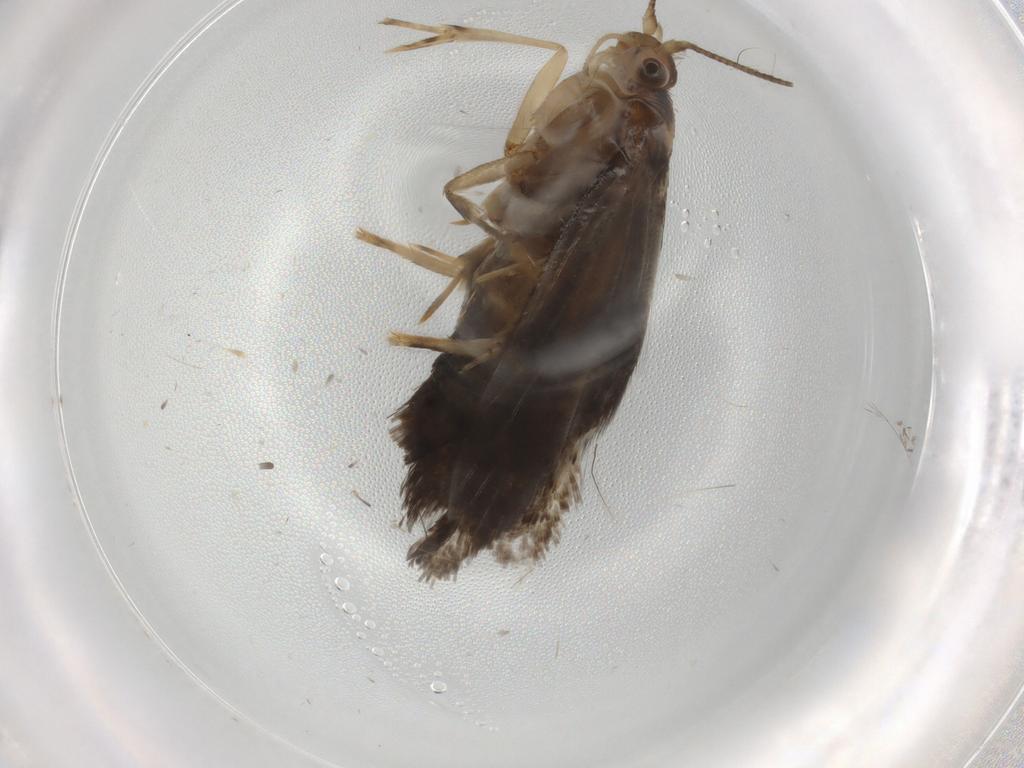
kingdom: Animalia
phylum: Arthropoda
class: Insecta
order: Lepidoptera
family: Tineidae
